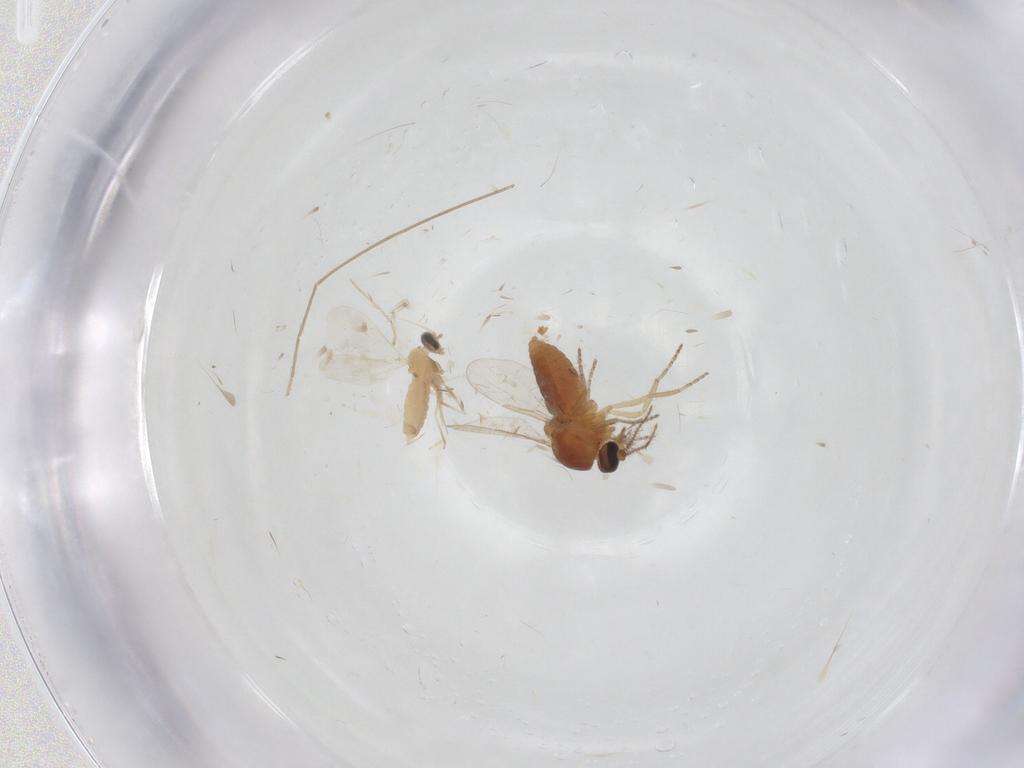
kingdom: Animalia
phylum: Arthropoda
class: Insecta
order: Diptera
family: Ceratopogonidae
